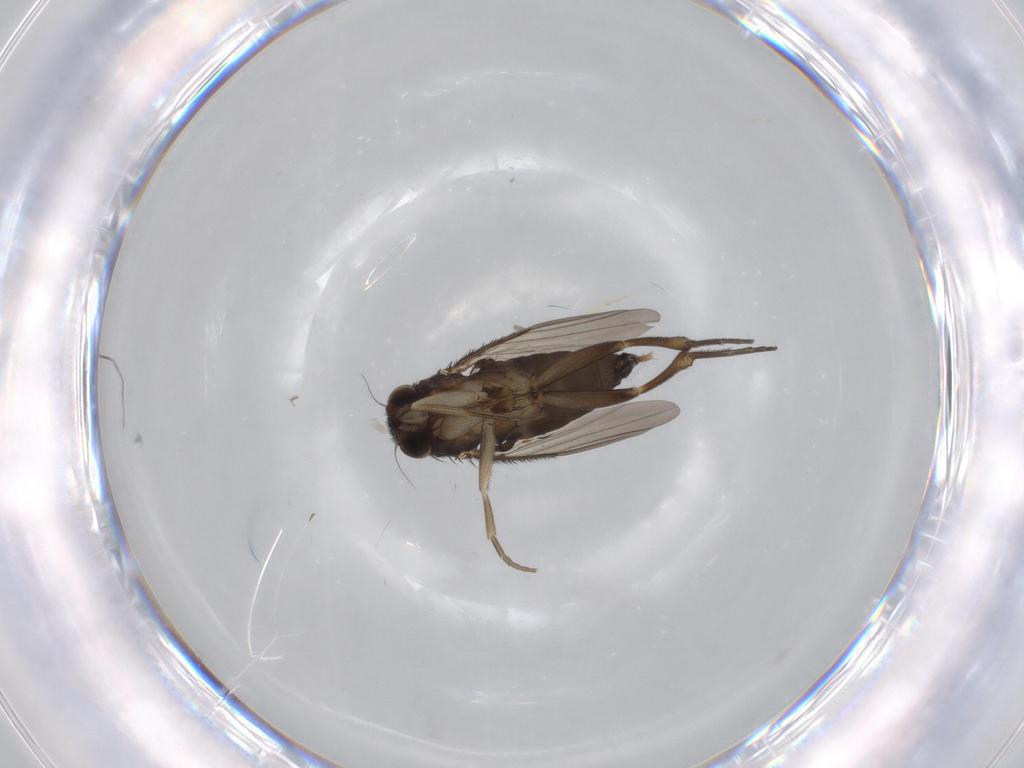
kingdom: Animalia
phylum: Arthropoda
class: Insecta
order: Diptera
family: Phoridae
